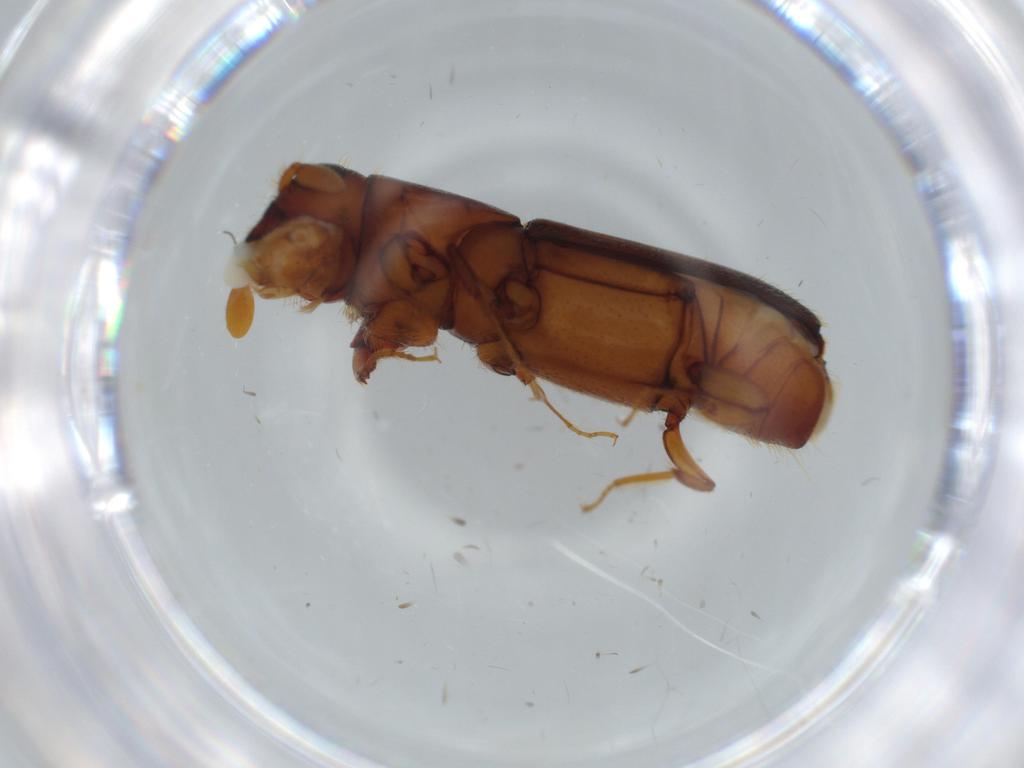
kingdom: Animalia
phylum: Arthropoda
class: Insecta
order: Coleoptera
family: Curculionidae
